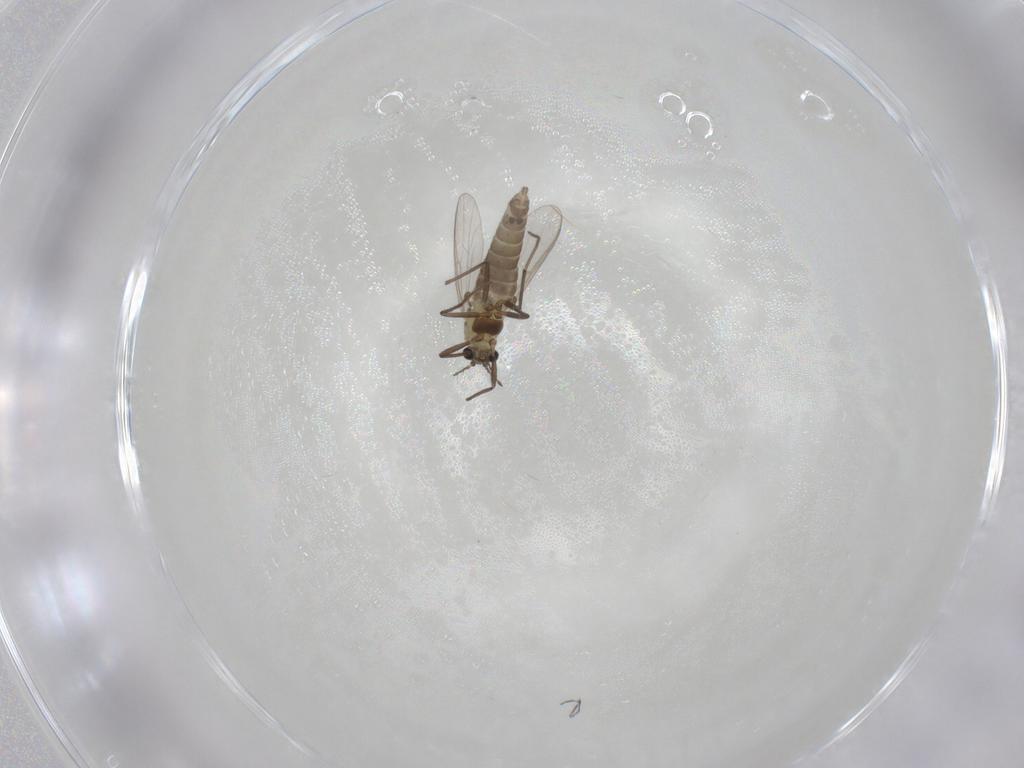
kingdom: Animalia
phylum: Arthropoda
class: Insecta
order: Diptera
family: Chironomidae
